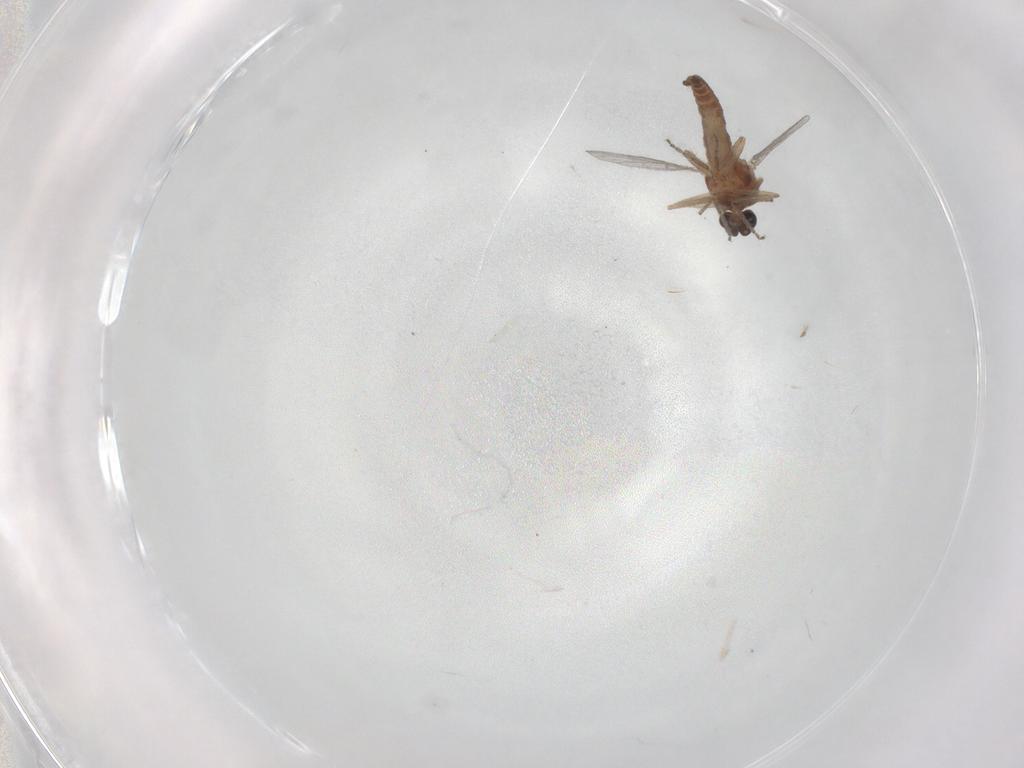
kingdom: Animalia
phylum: Arthropoda
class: Insecta
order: Diptera
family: Ceratopogonidae
